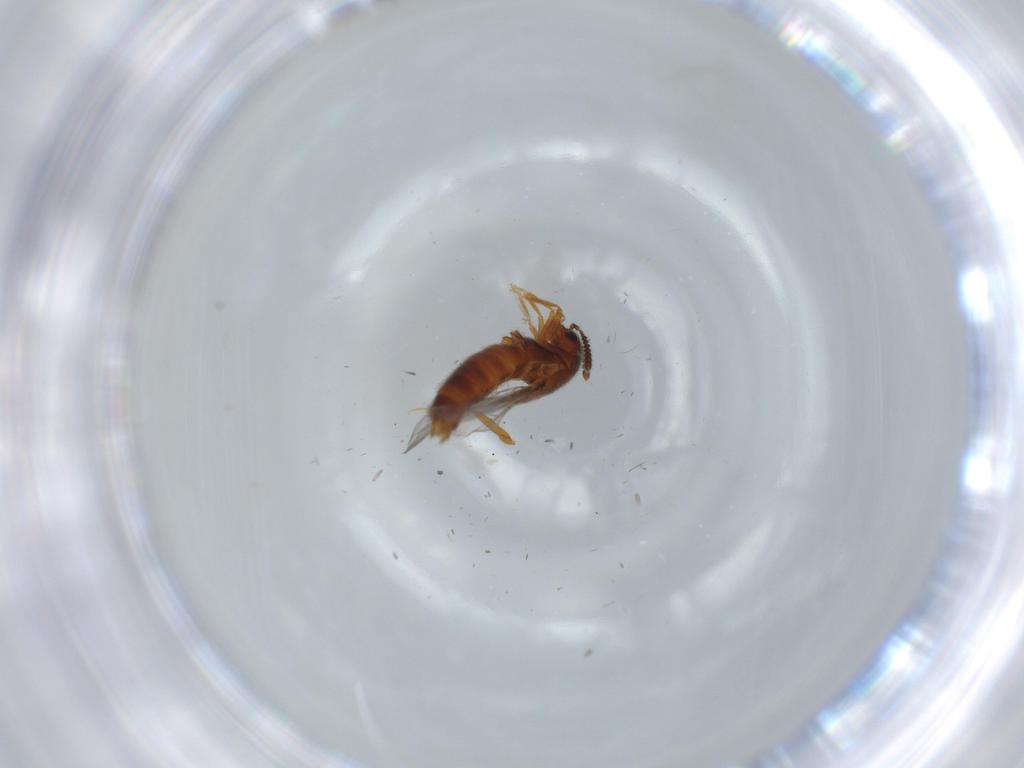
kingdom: Animalia
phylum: Arthropoda
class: Insecta
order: Coleoptera
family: Staphylinidae
